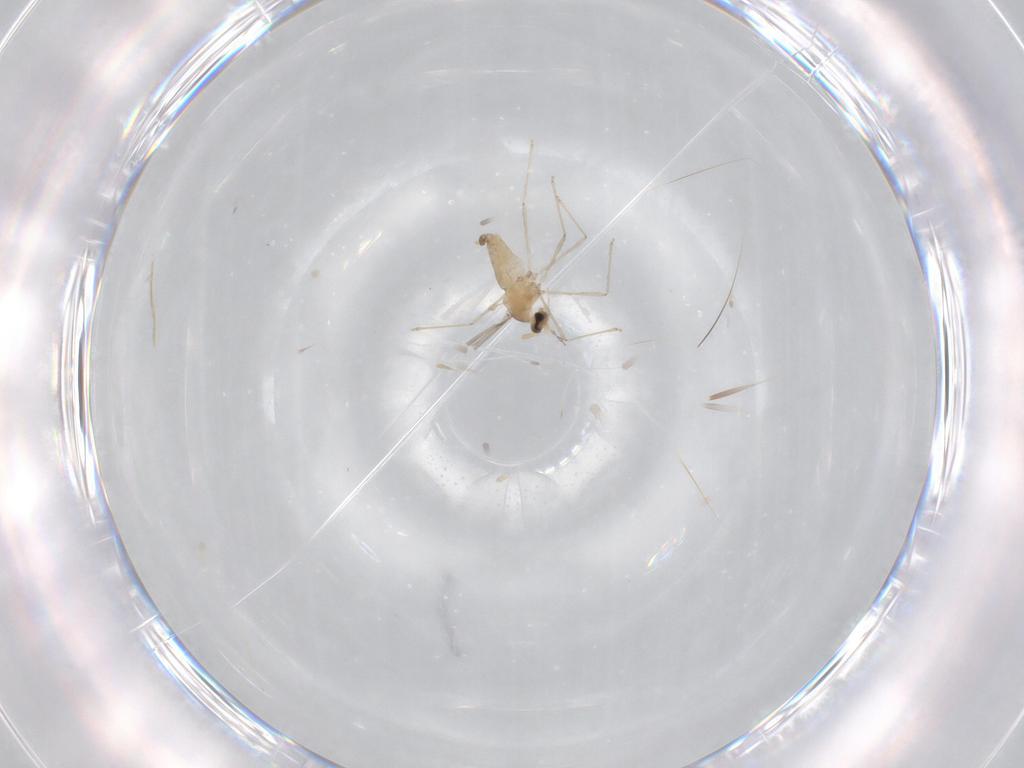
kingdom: Animalia
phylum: Arthropoda
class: Insecta
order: Diptera
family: Cecidomyiidae
